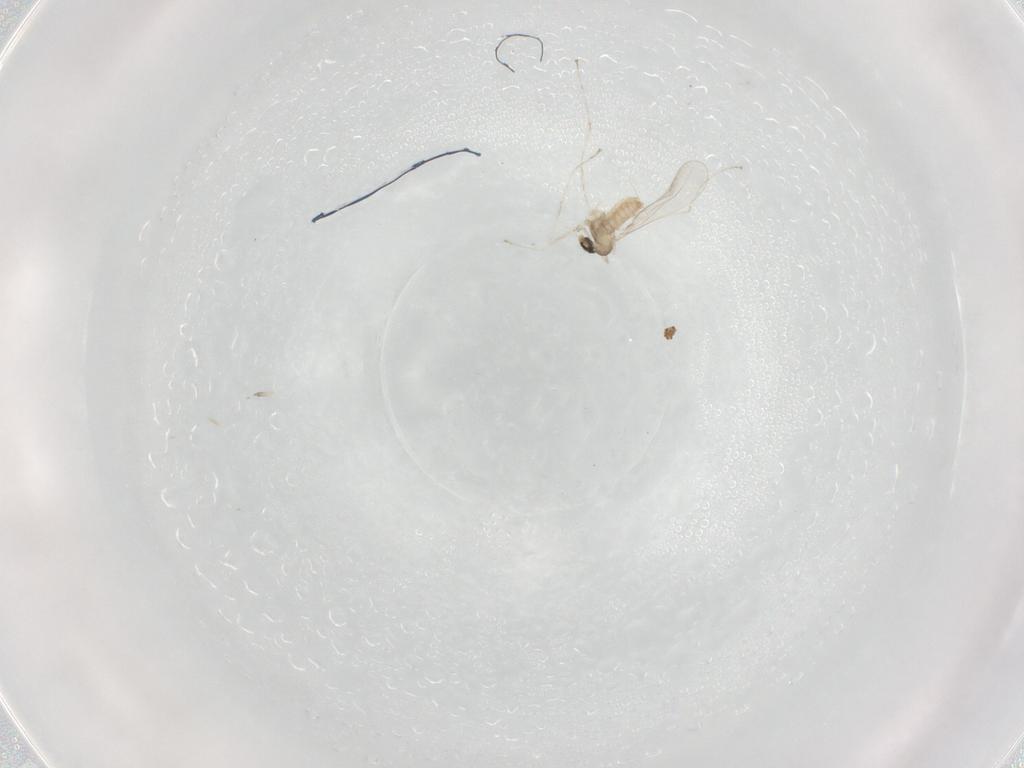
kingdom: Animalia
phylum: Arthropoda
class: Insecta
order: Diptera
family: Cecidomyiidae
